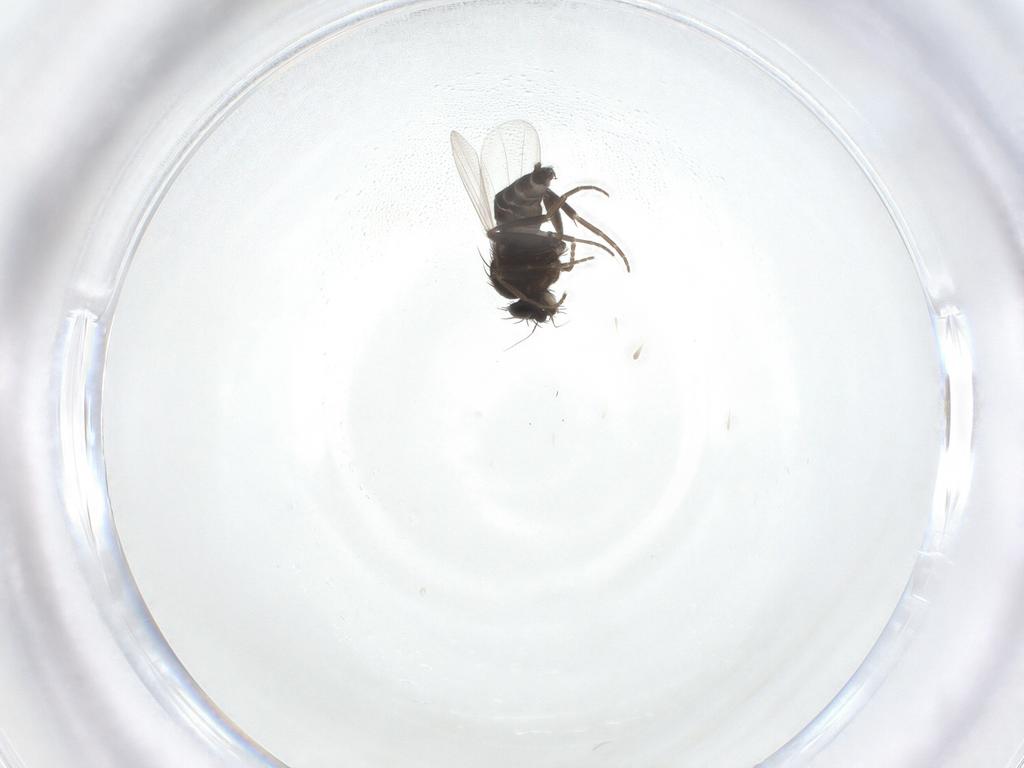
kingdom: Animalia
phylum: Arthropoda
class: Insecta
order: Diptera
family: Phoridae
